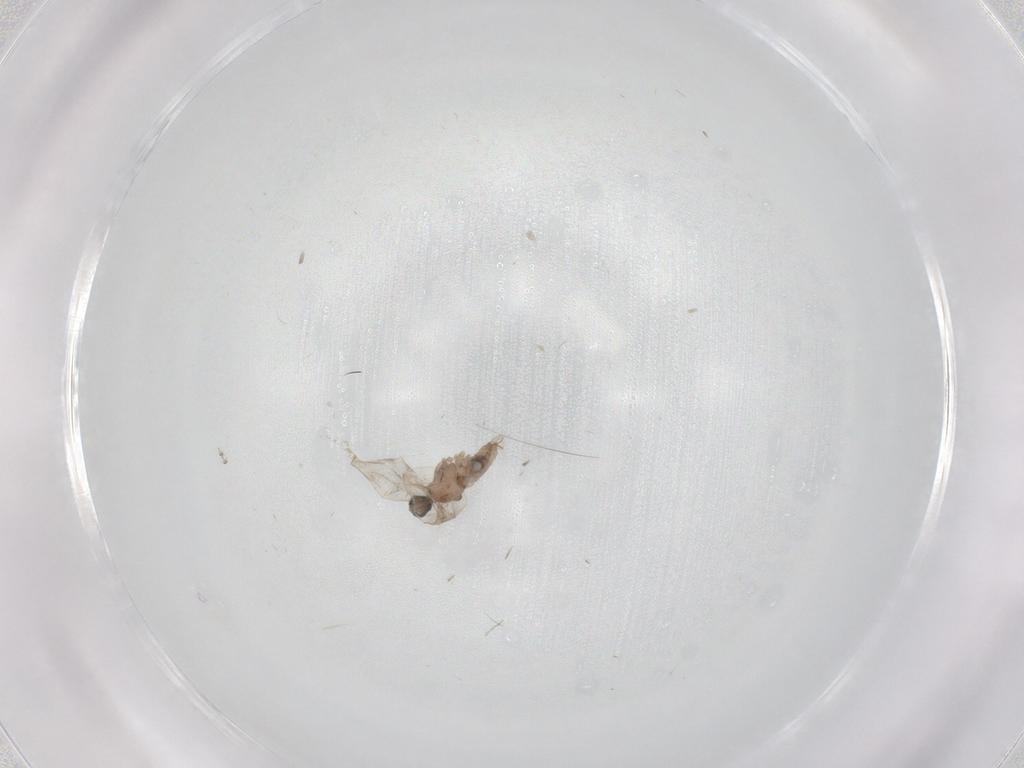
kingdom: Animalia
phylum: Arthropoda
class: Insecta
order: Diptera
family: Cecidomyiidae
